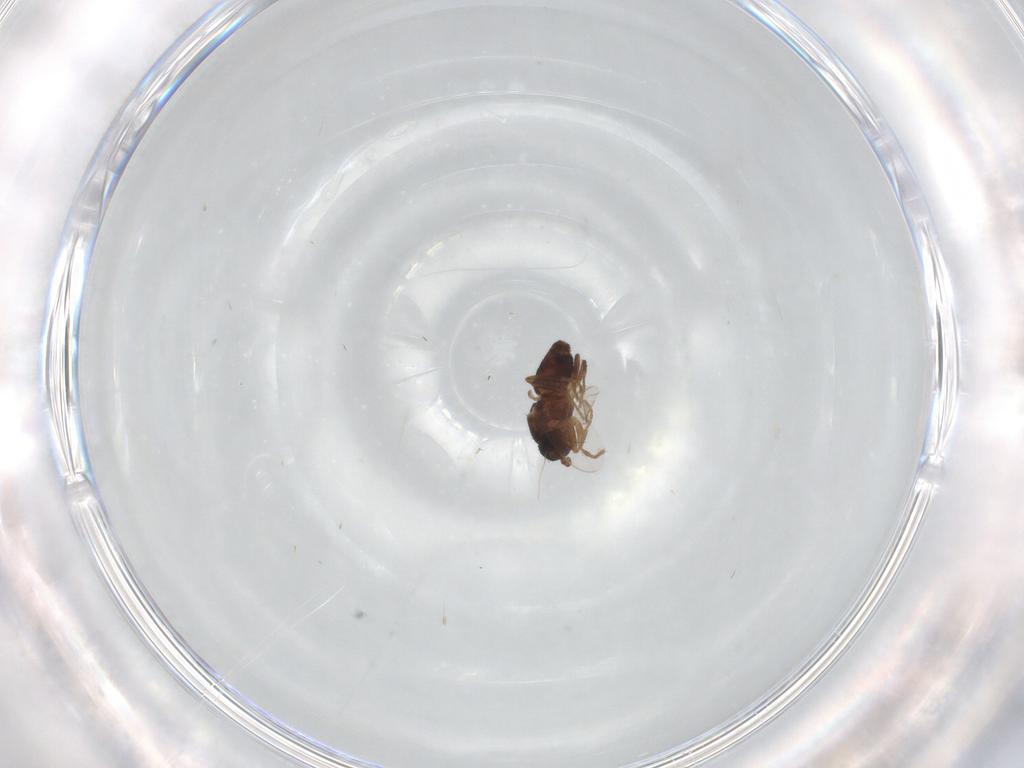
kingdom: Animalia
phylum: Arthropoda
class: Insecta
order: Diptera
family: Sphaeroceridae
